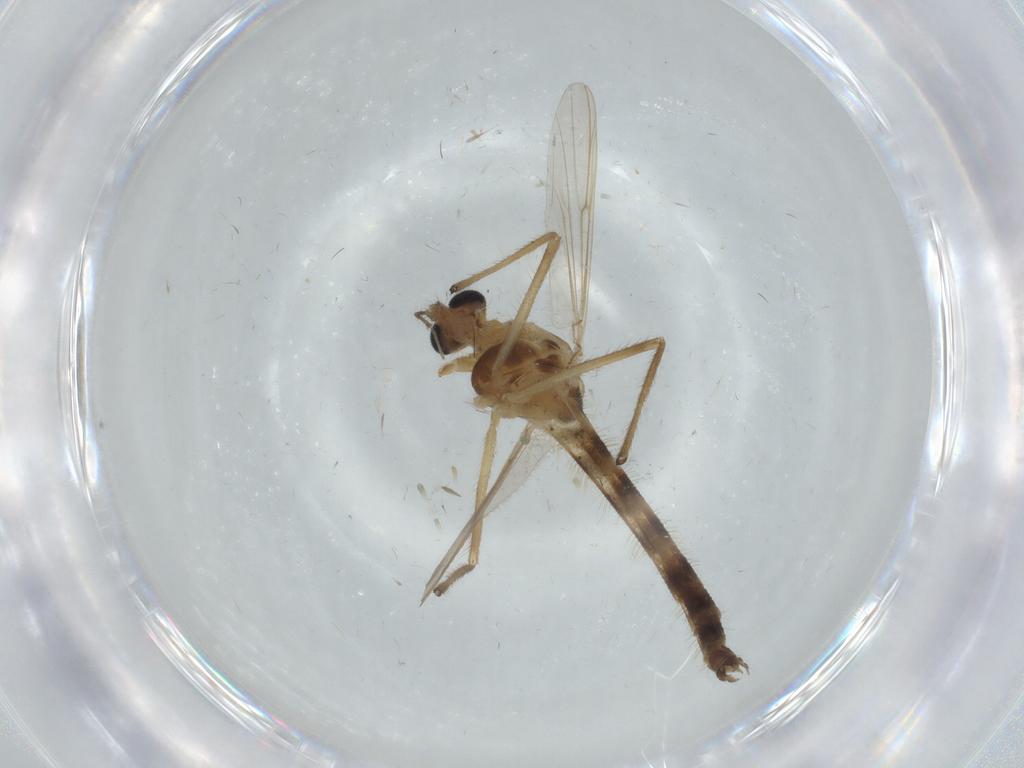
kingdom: Animalia
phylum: Arthropoda
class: Insecta
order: Diptera
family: Chironomidae
